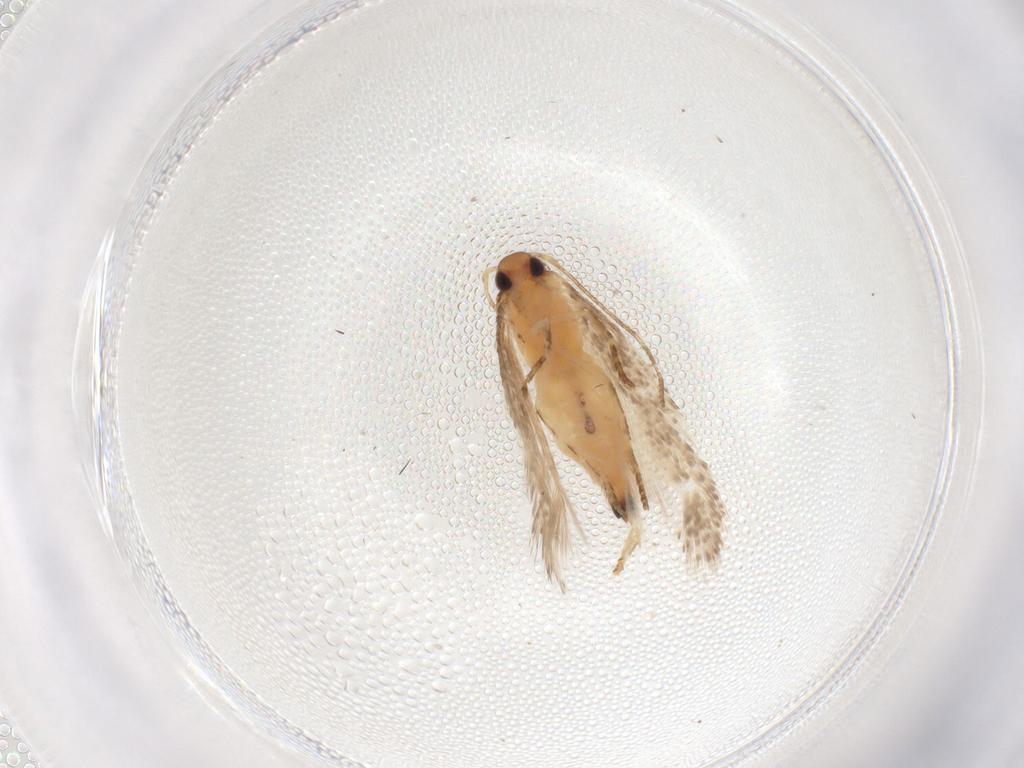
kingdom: Animalia
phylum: Arthropoda
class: Insecta
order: Lepidoptera
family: Gelechiidae
